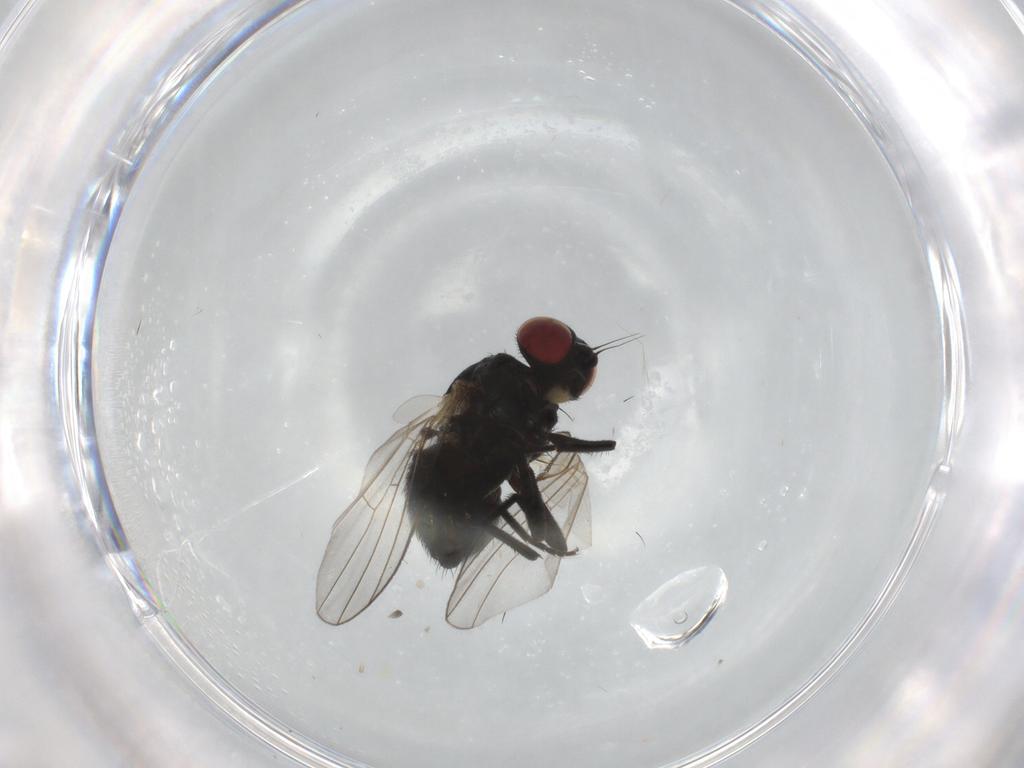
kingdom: Animalia
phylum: Arthropoda
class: Insecta
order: Diptera
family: Agromyzidae
